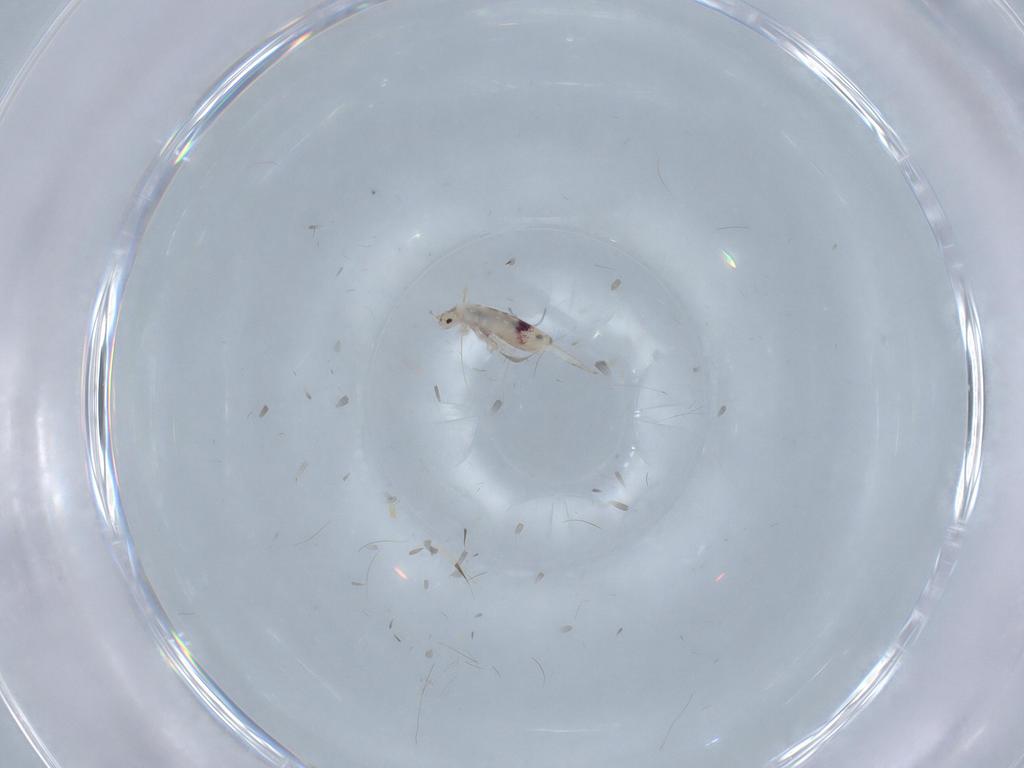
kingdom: Animalia
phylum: Arthropoda
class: Collembola
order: Entomobryomorpha
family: Entomobryidae
